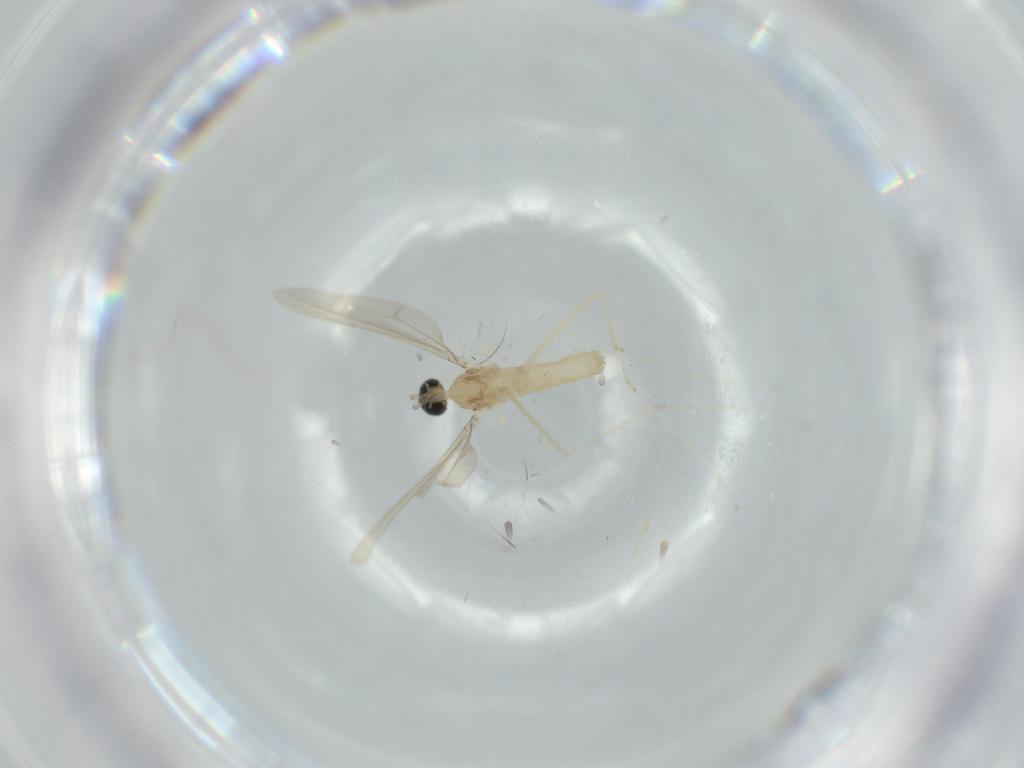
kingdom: Animalia
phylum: Arthropoda
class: Insecta
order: Diptera
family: Cecidomyiidae
